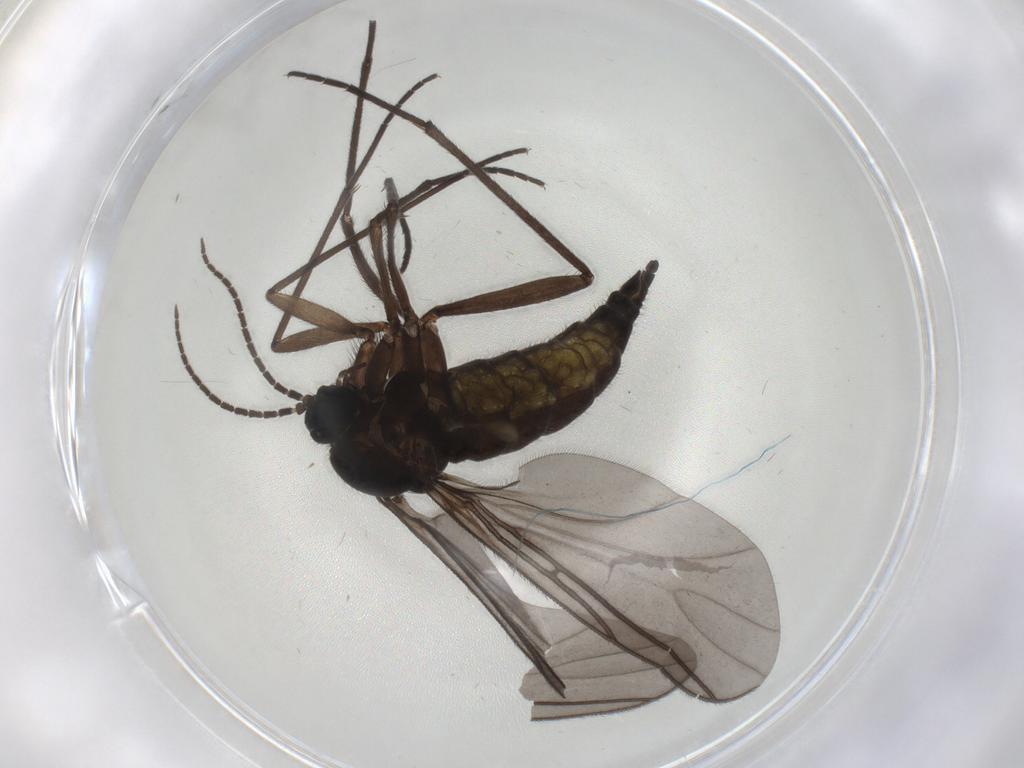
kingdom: Animalia
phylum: Arthropoda
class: Insecta
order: Diptera
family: Sciaridae
